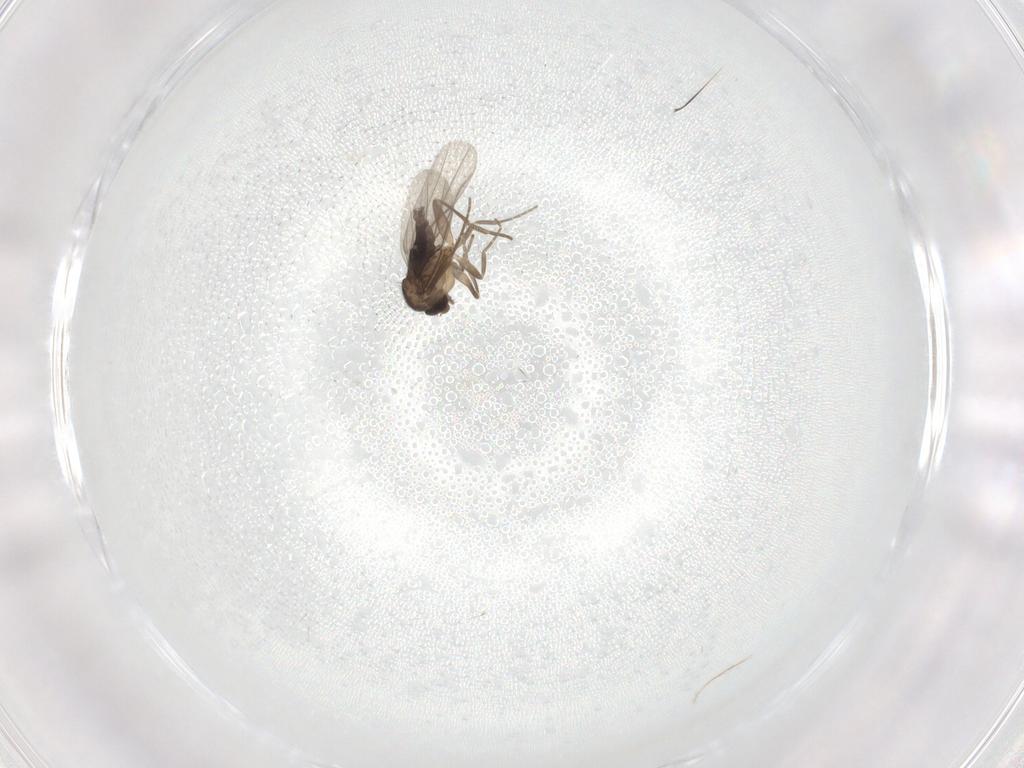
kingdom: Animalia
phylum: Arthropoda
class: Insecta
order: Diptera
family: Phoridae
